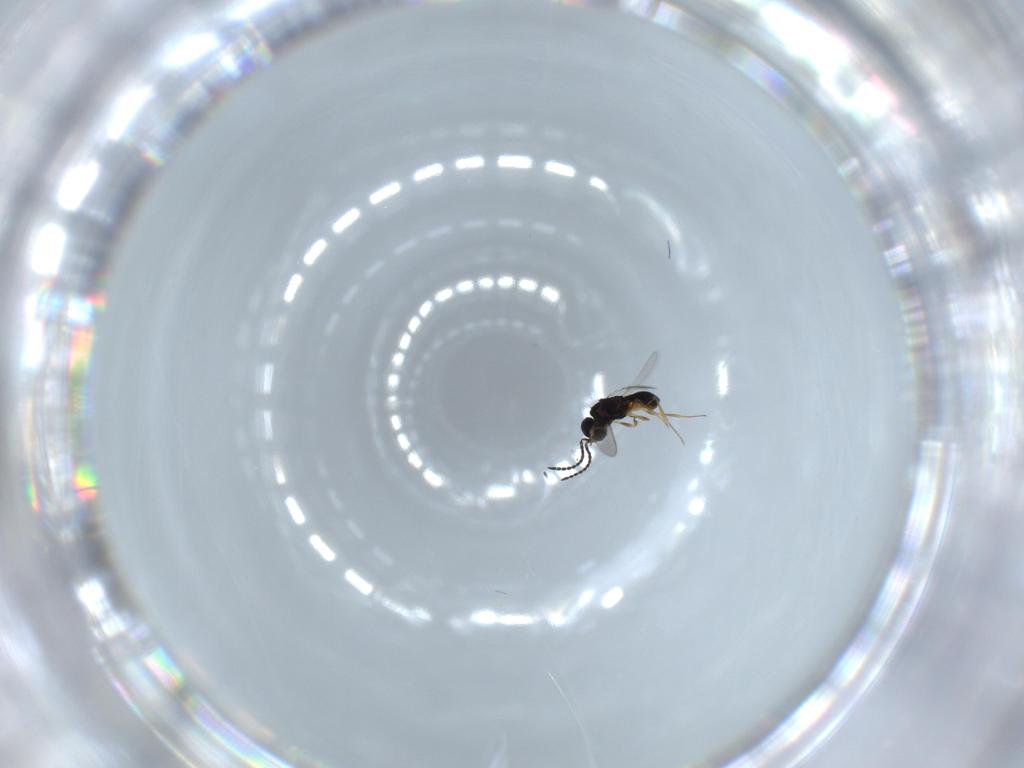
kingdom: Animalia
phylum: Arthropoda
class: Insecta
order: Hymenoptera
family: Scelionidae
